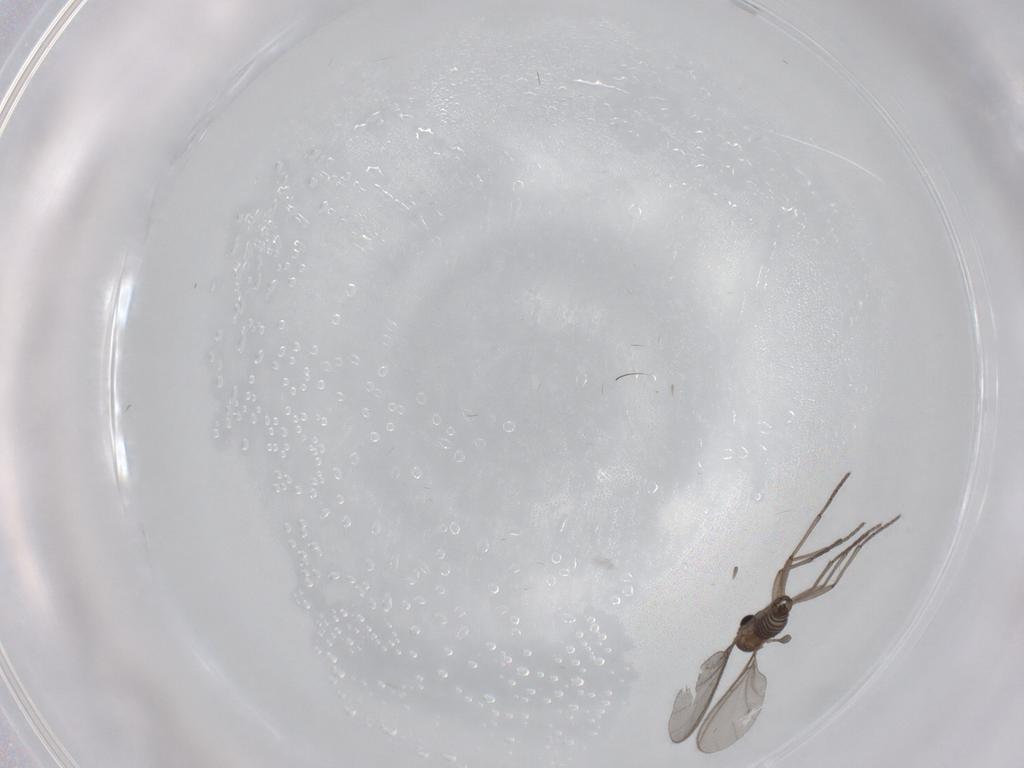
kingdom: Animalia
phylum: Arthropoda
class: Insecta
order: Diptera
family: Sciaridae
